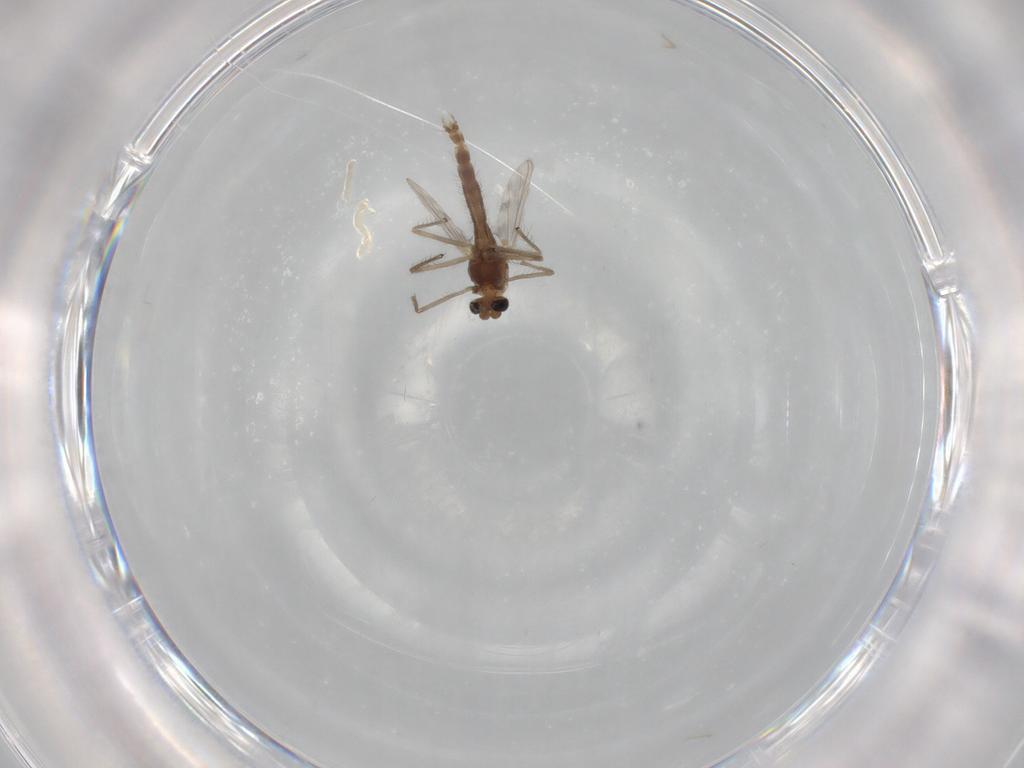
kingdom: Animalia
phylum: Arthropoda
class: Insecta
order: Diptera
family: Chironomidae
